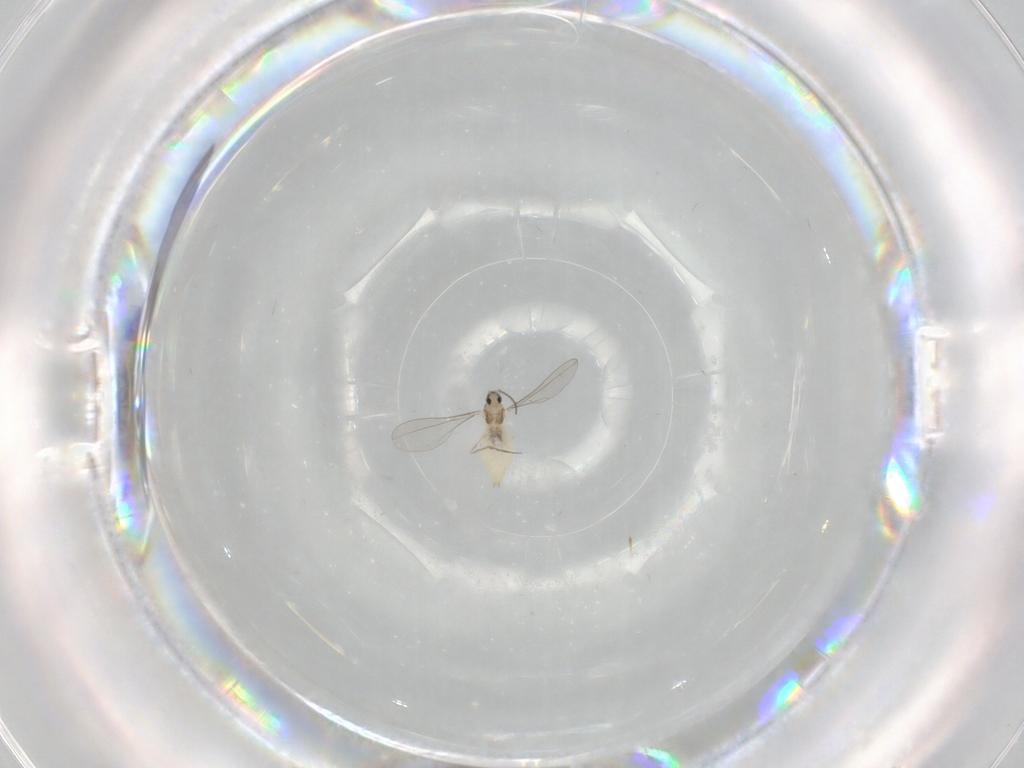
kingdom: Animalia
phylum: Arthropoda
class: Insecta
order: Diptera
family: Cecidomyiidae
